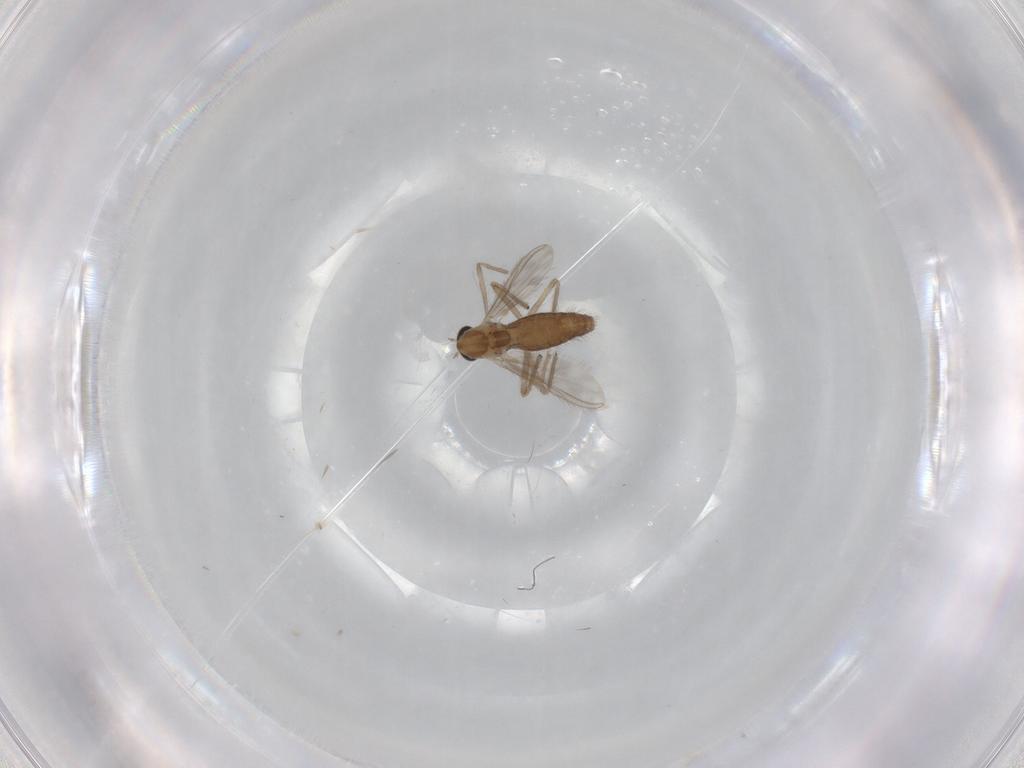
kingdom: Animalia
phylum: Arthropoda
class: Insecta
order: Diptera
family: Chironomidae
